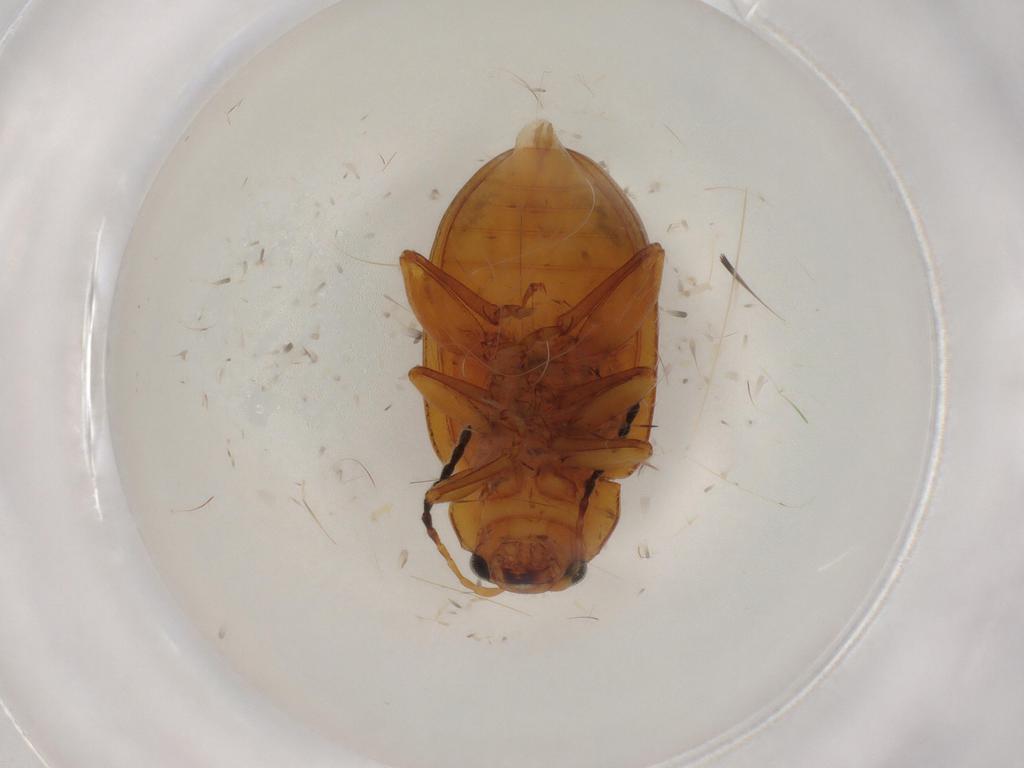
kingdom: Animalia
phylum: Arthropoda
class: Insecta
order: Coleoptera
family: Chrysomelidae
